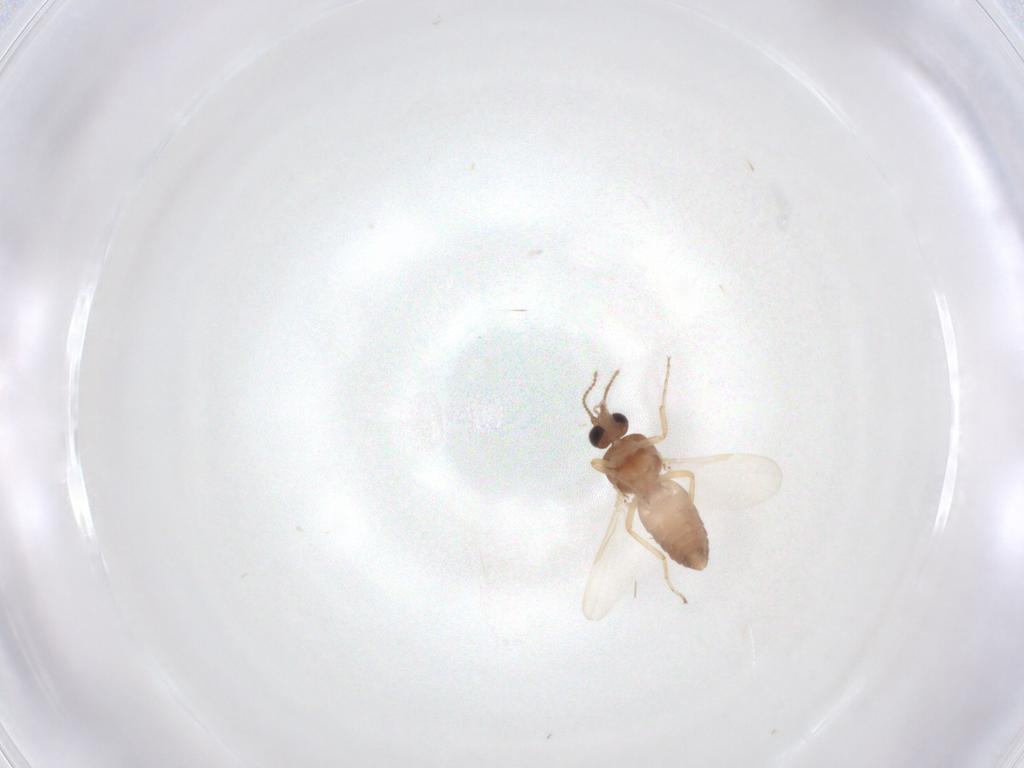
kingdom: Animalia
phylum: Arthropoda
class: Insecta
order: Diptera
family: Ceratopogonidae
